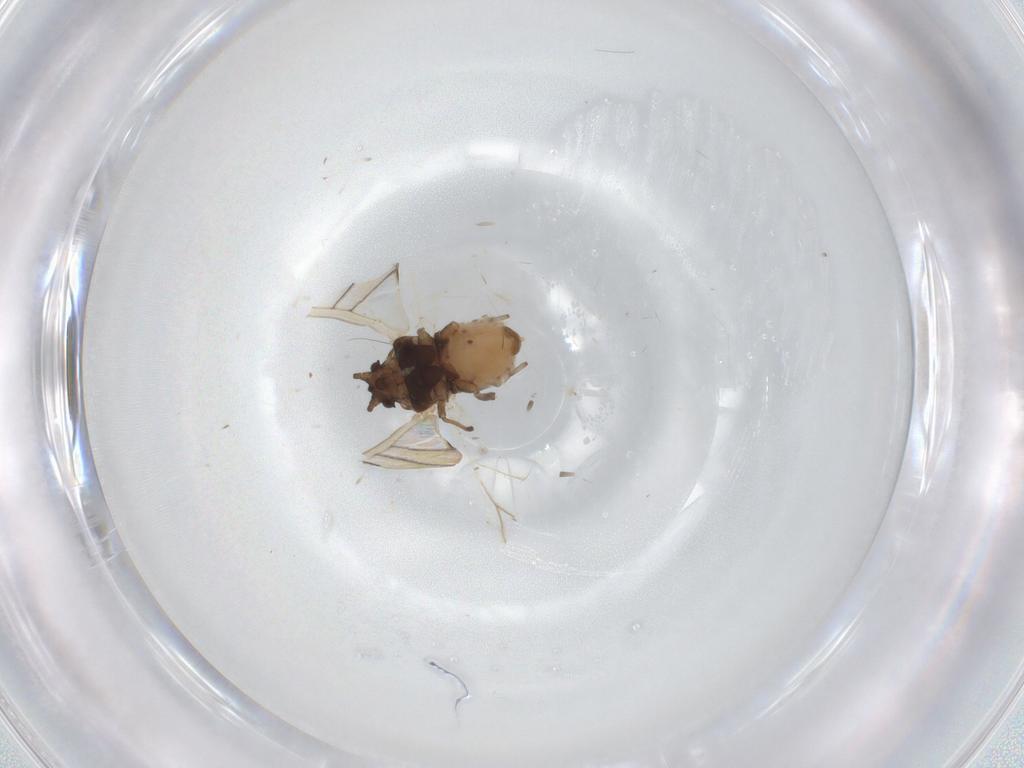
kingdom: Animalia
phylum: Arthropoda
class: Insecta
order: Hemiptera
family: Aphididae
